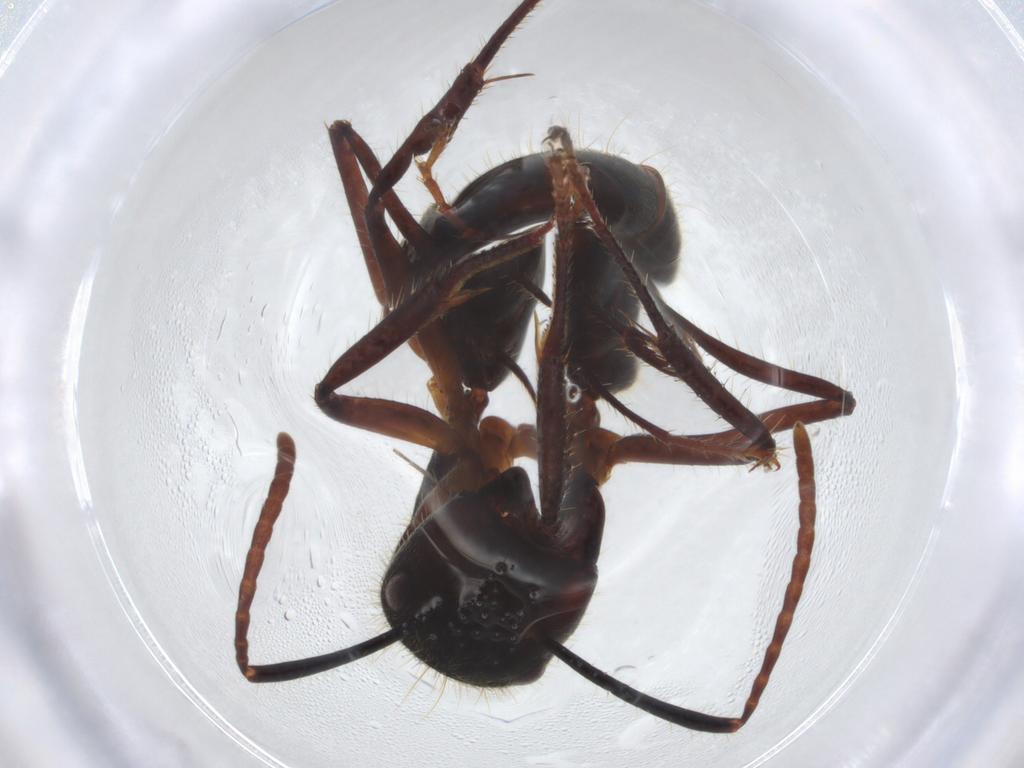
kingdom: Animalia
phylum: Arthropoda
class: Insecta
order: Hymenoptera
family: Formicidae
